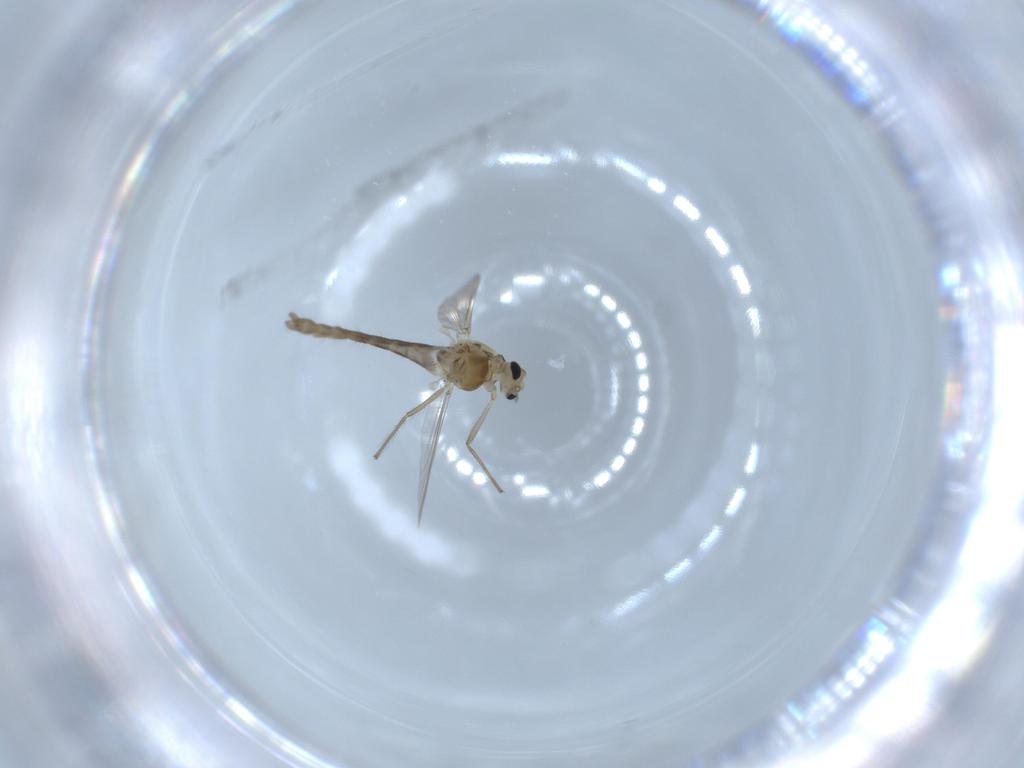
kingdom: Animalia
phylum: Arthropoda
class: Insecta
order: Diptera
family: Chironomidae
